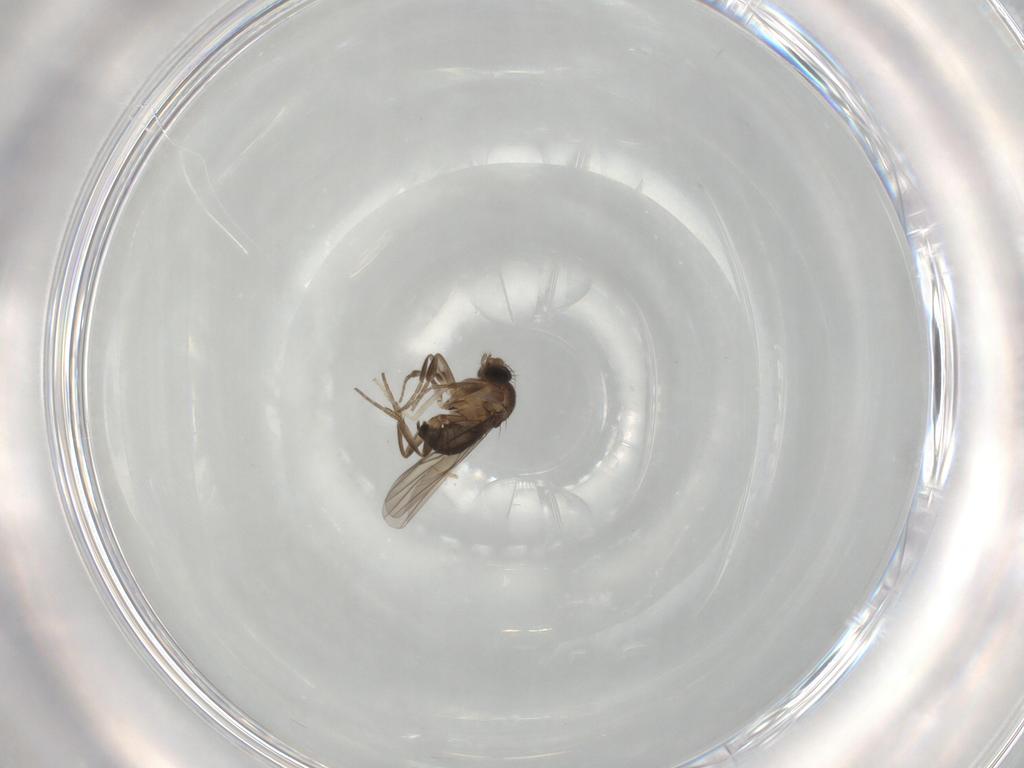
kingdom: Animalia
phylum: Arthropoda
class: Insecta
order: Diptera
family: Phoridae
